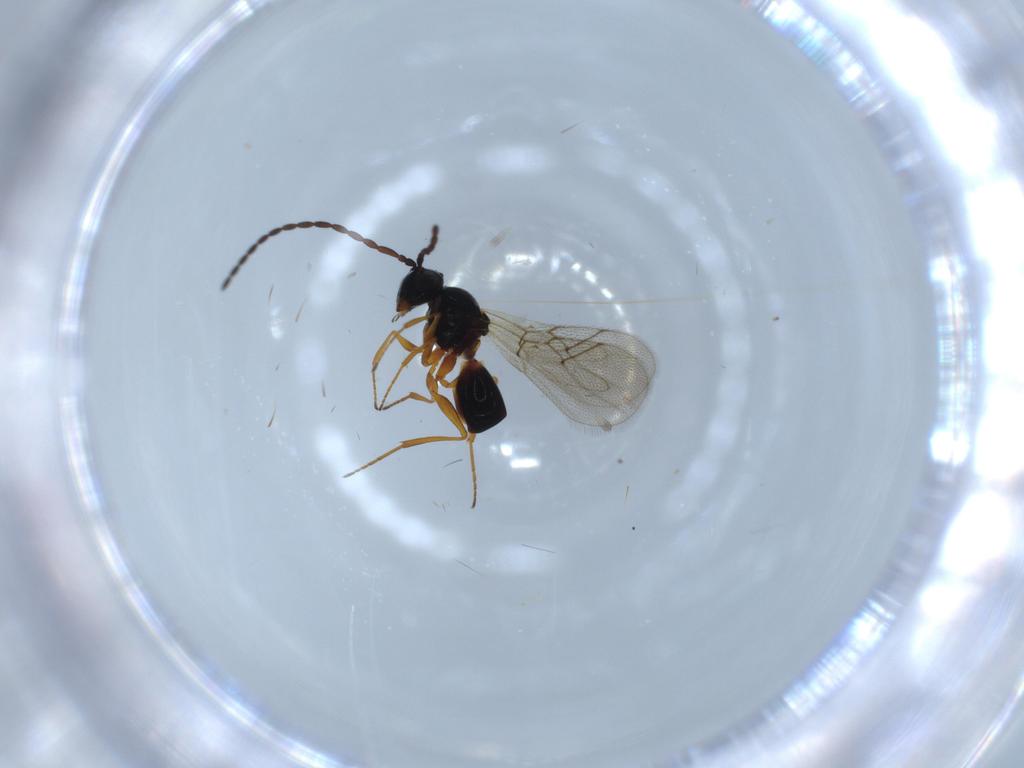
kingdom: Animalia
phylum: Arthropoda
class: Insecta
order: Hymenoptera
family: Figitidae
